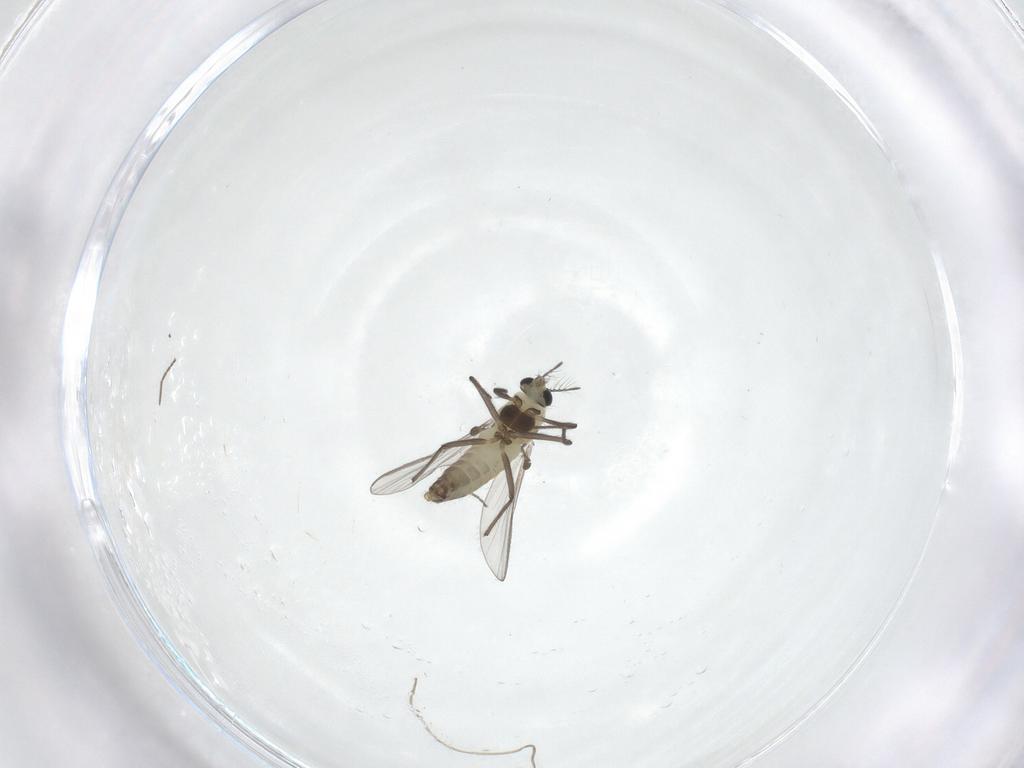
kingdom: Animalia
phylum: Arthropoda
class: Insecta
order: Diptera
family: Chironomidae
